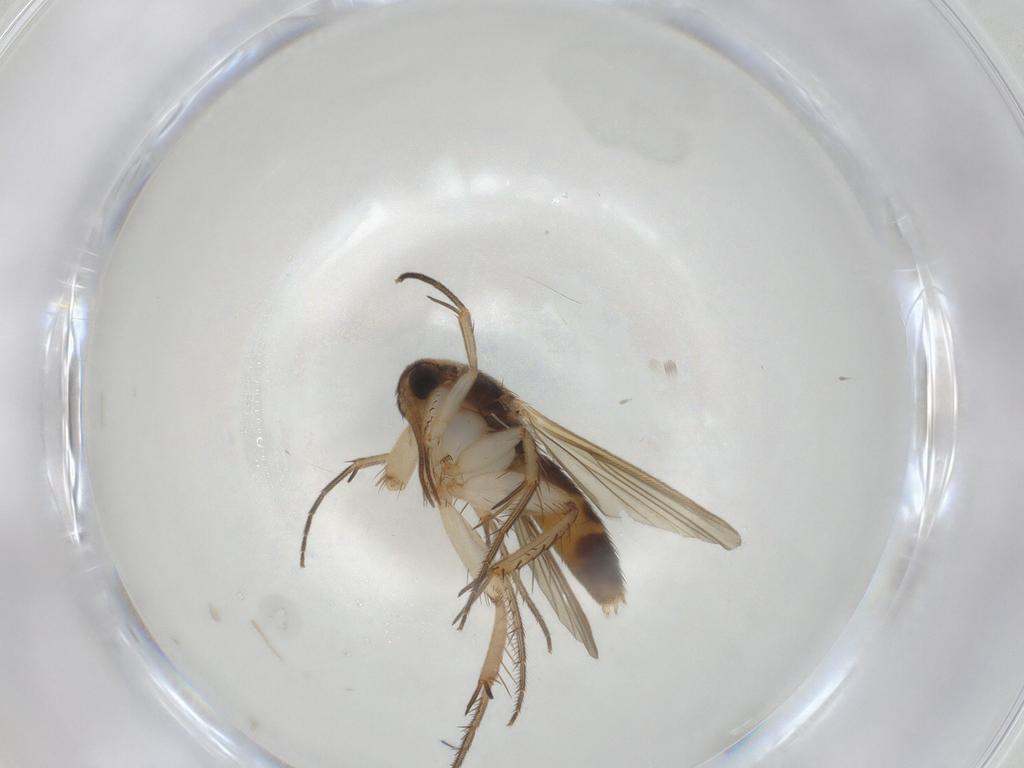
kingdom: Animalia
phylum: Arthropoda
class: Insecta
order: Diptera
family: Mycetophilidae
